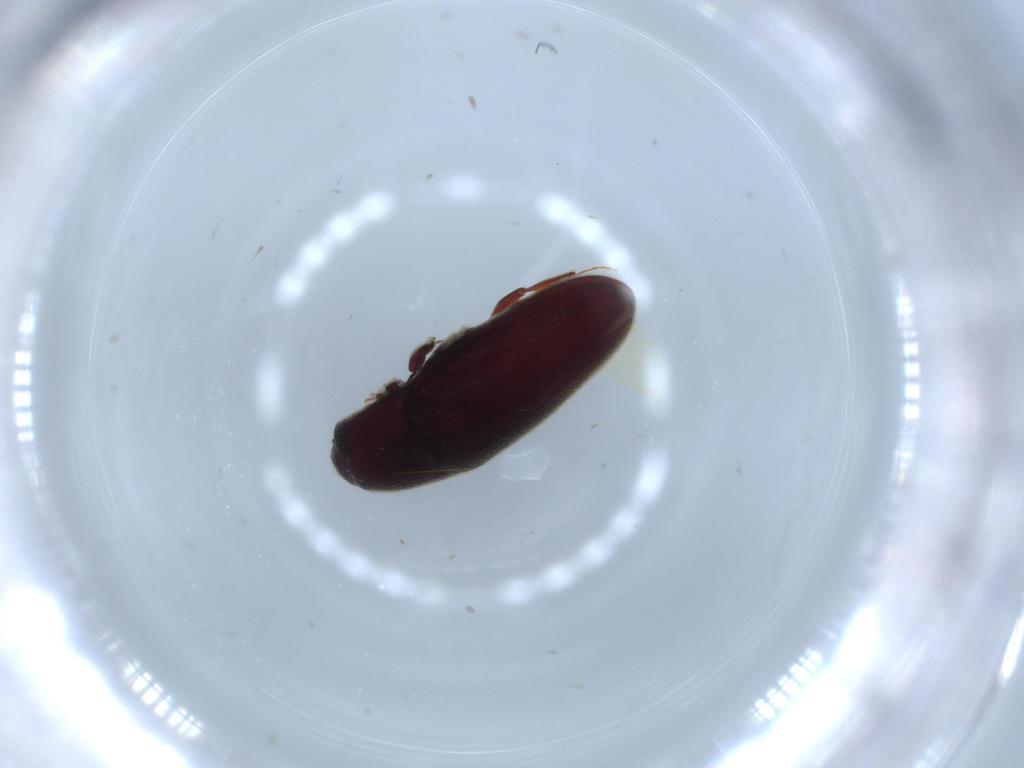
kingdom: Animalia
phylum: Arthropoda
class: Insecta
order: Coleoptera
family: Throscidae
